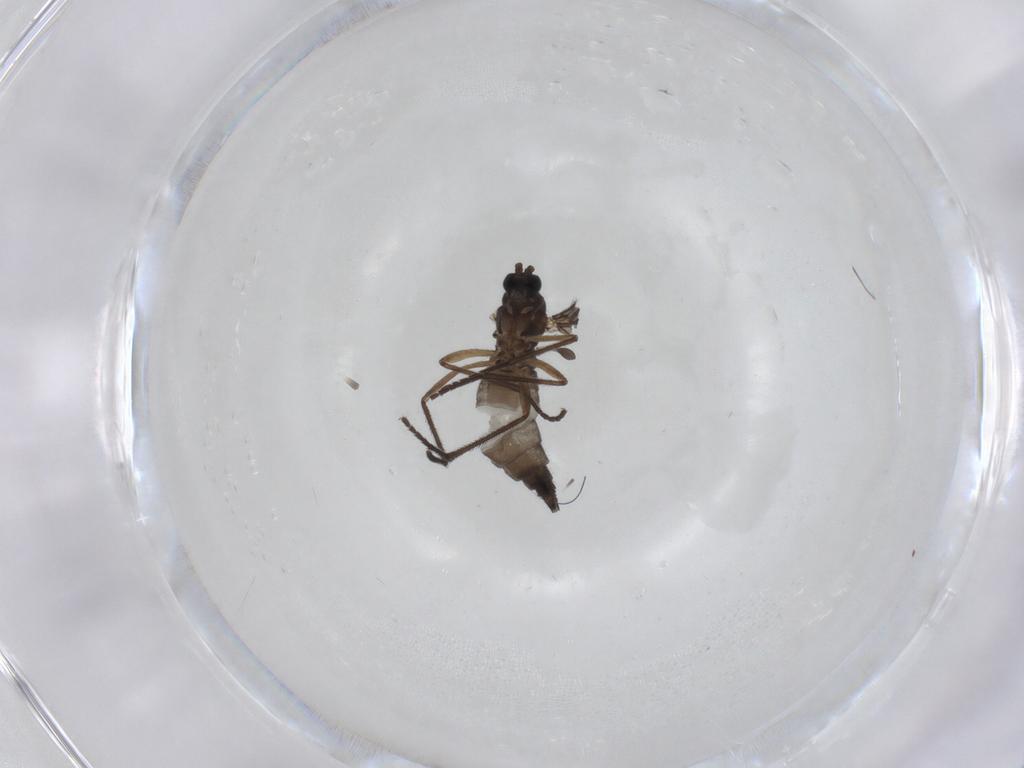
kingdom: Animalia
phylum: Arthropoda
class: Insecta
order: Diptera
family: Sciaridae
